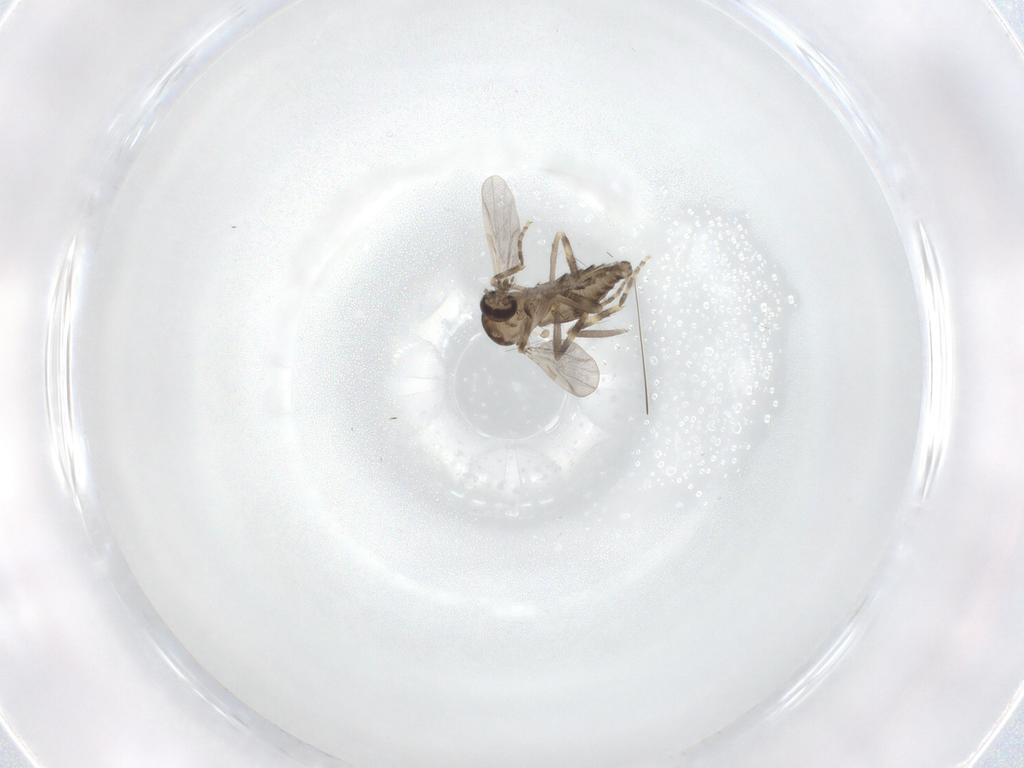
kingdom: Animalia
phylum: Arthropoda
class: Insecta
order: Diptera
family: Ceratopogonidae
